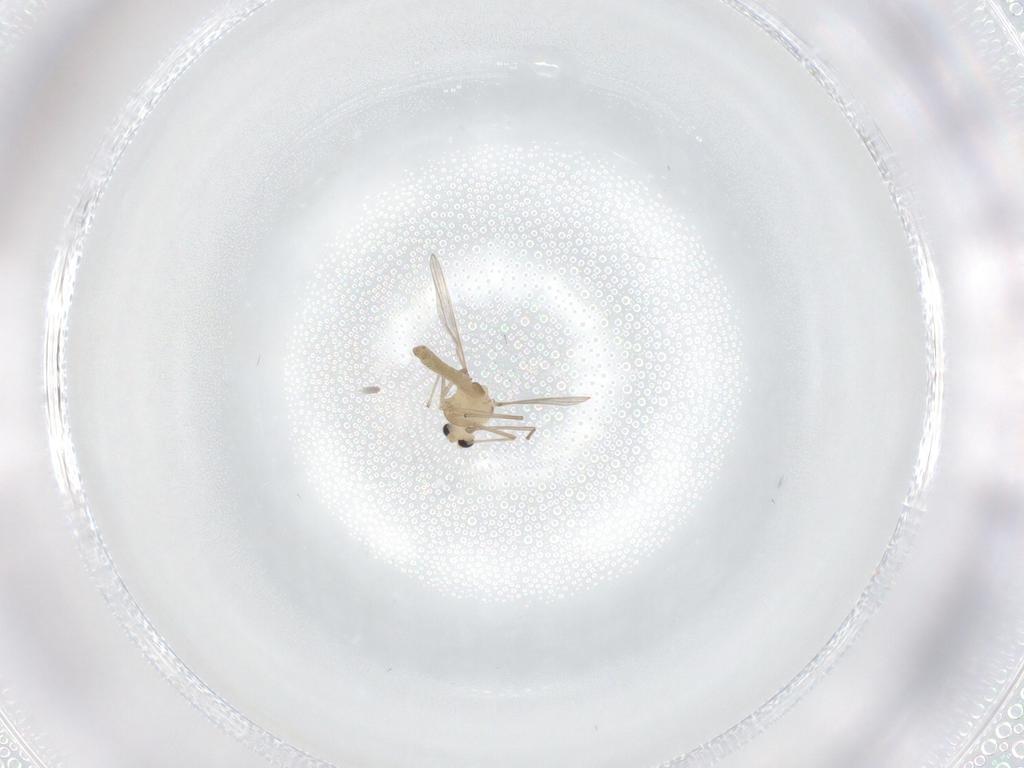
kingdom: Animalia
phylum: Arthropoda
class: Insecta
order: Diptera
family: Chironomidae
